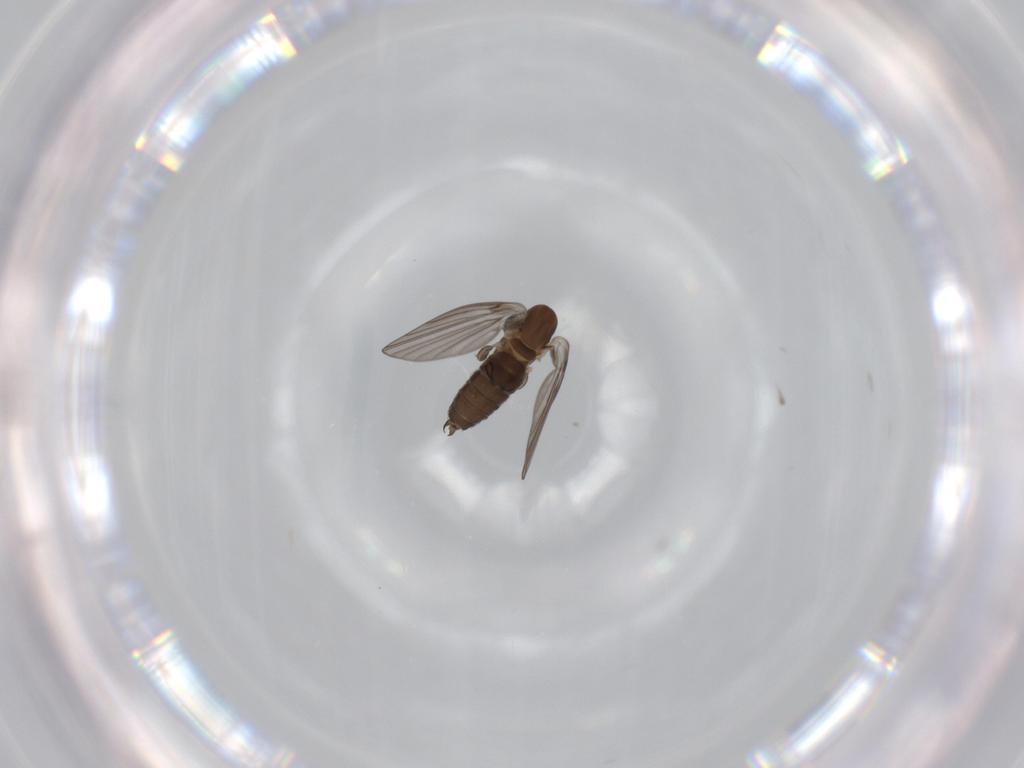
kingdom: Animalia
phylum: Arthropoda
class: Insecta
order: Diptera
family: Psychodidae
